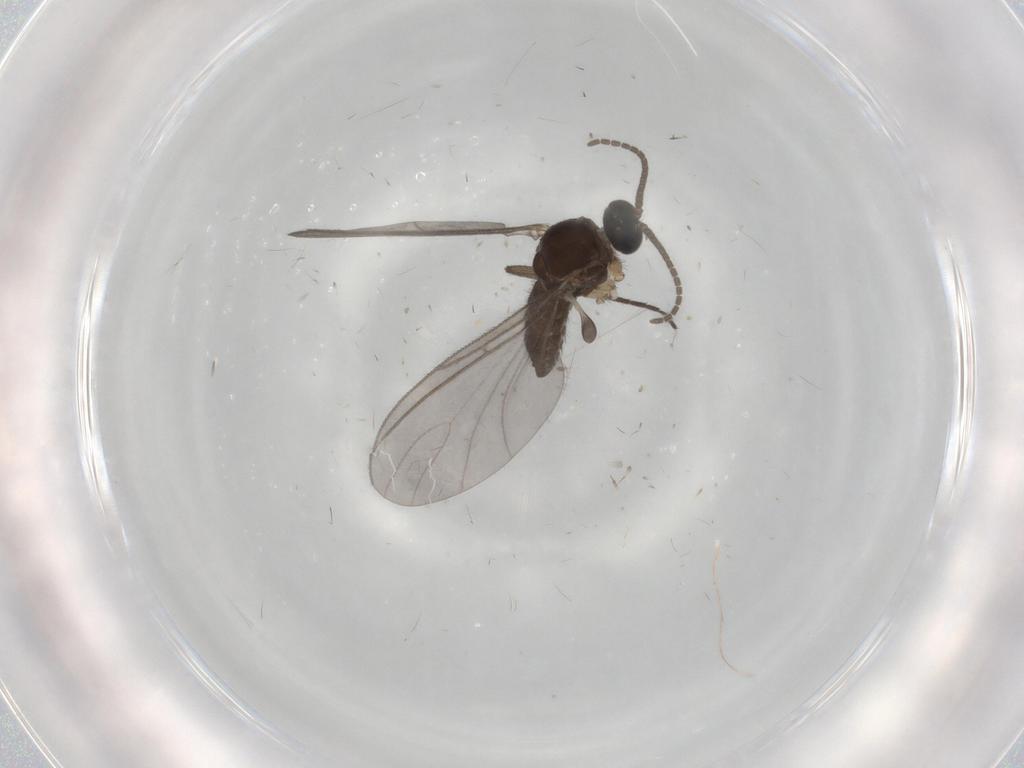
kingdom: Animalia
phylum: Arthropoda
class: Insecta
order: Diptera
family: Sciaridae
